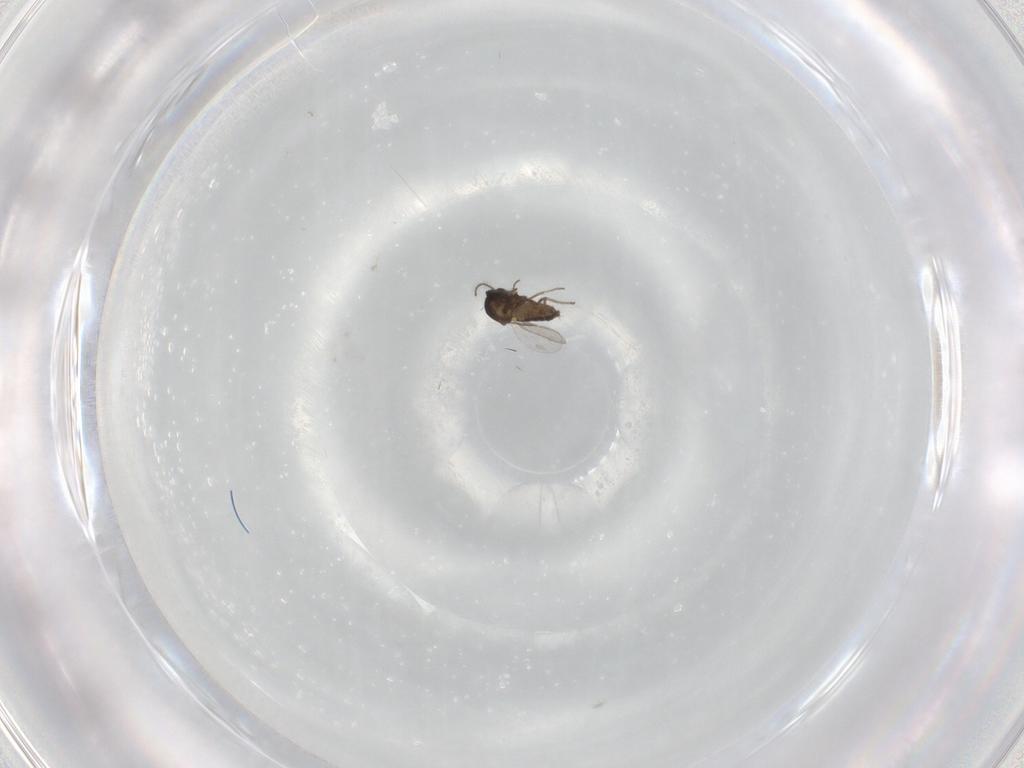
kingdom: Animalia
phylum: Arthropoda
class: Insecta
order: Diptera
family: Ceratopogonidae
